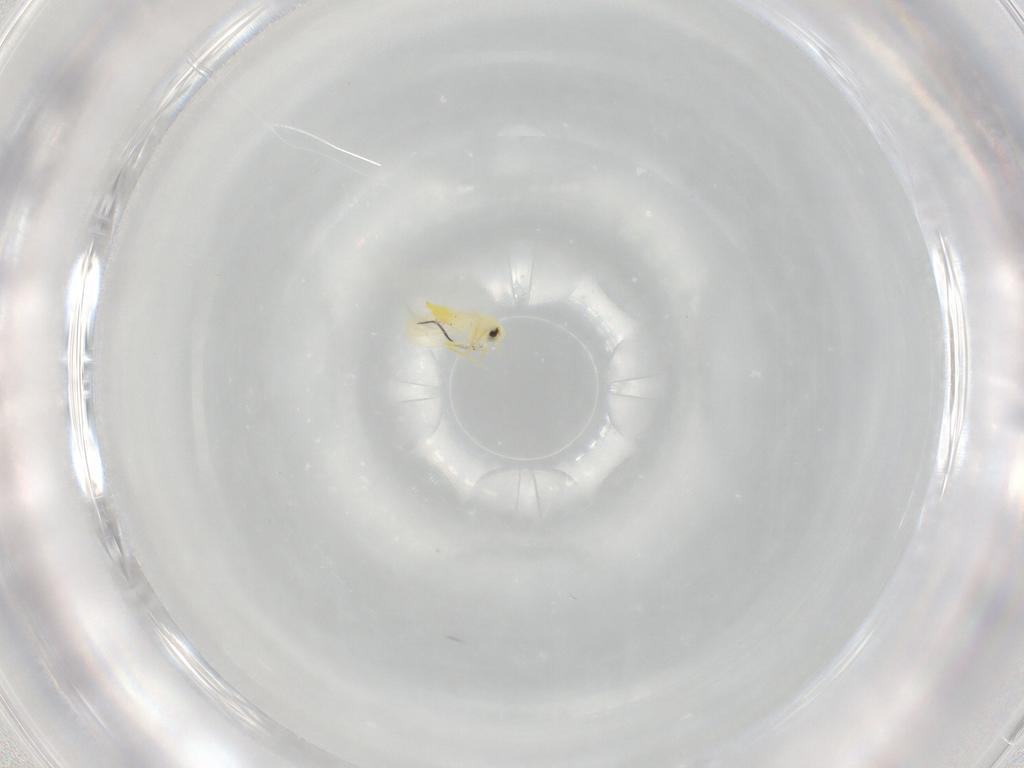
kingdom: Animalia
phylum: Arthropoda
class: Insecta
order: Hemiptera
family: Aleyrodidae
